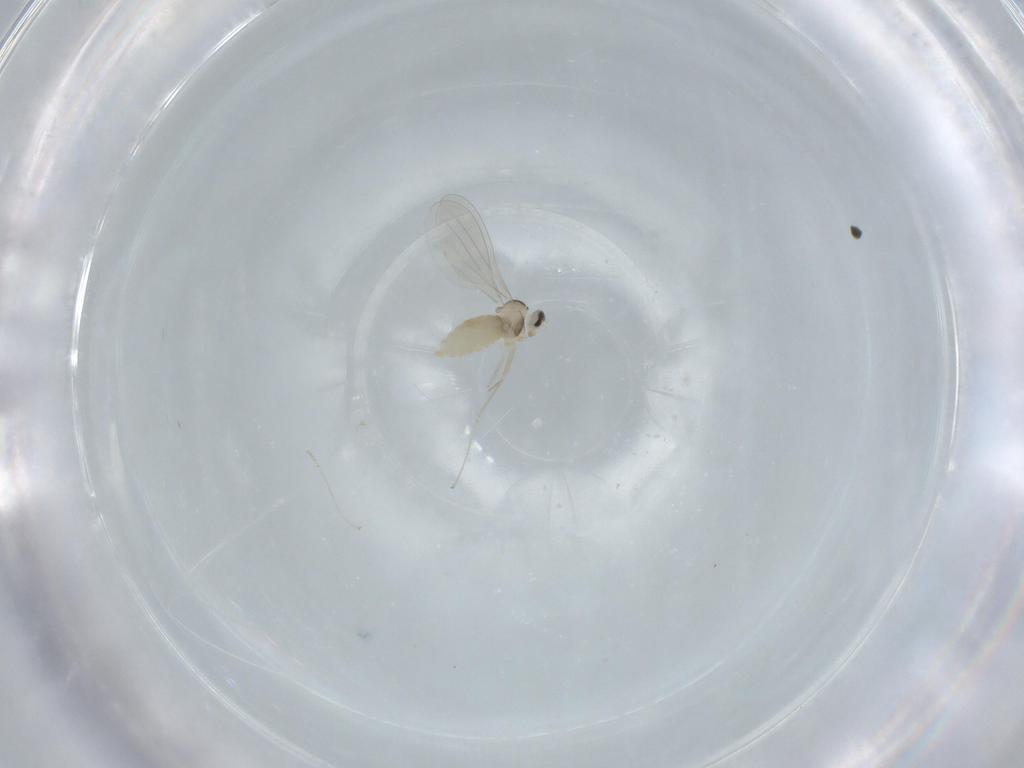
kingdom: Animalia
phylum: Arthropoda
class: Insecta
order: Diptera
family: Cecidomyiidae
